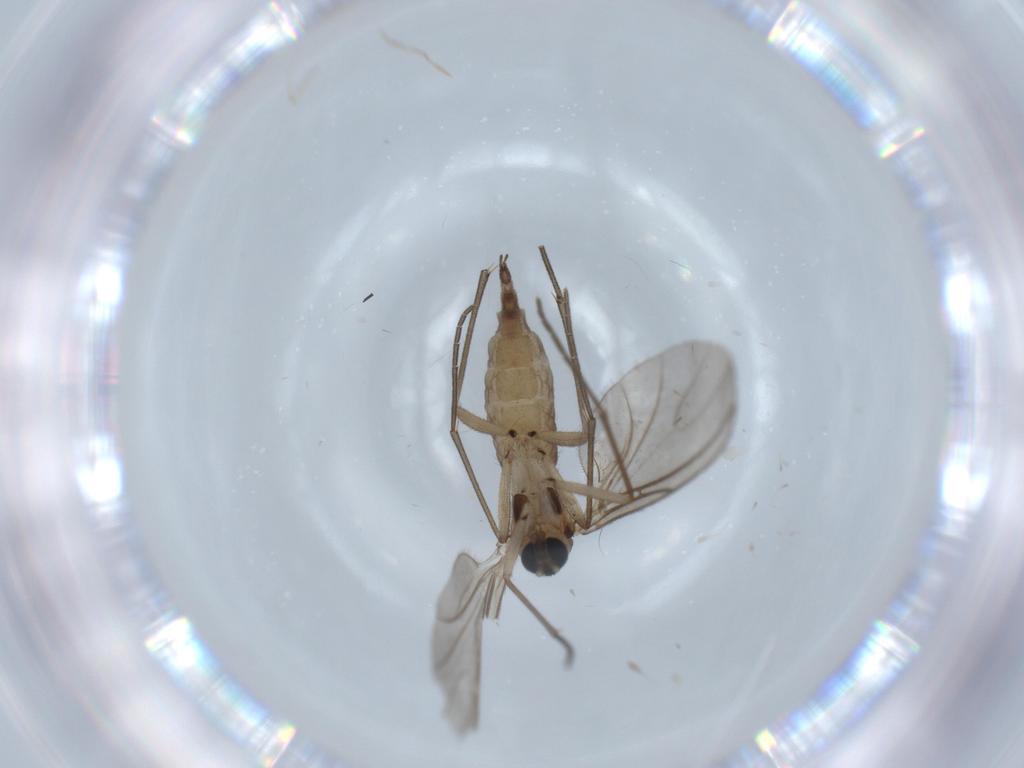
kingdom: Animalia
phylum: Arthropoda
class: Insecta
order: Diptera
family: Sciaridae
